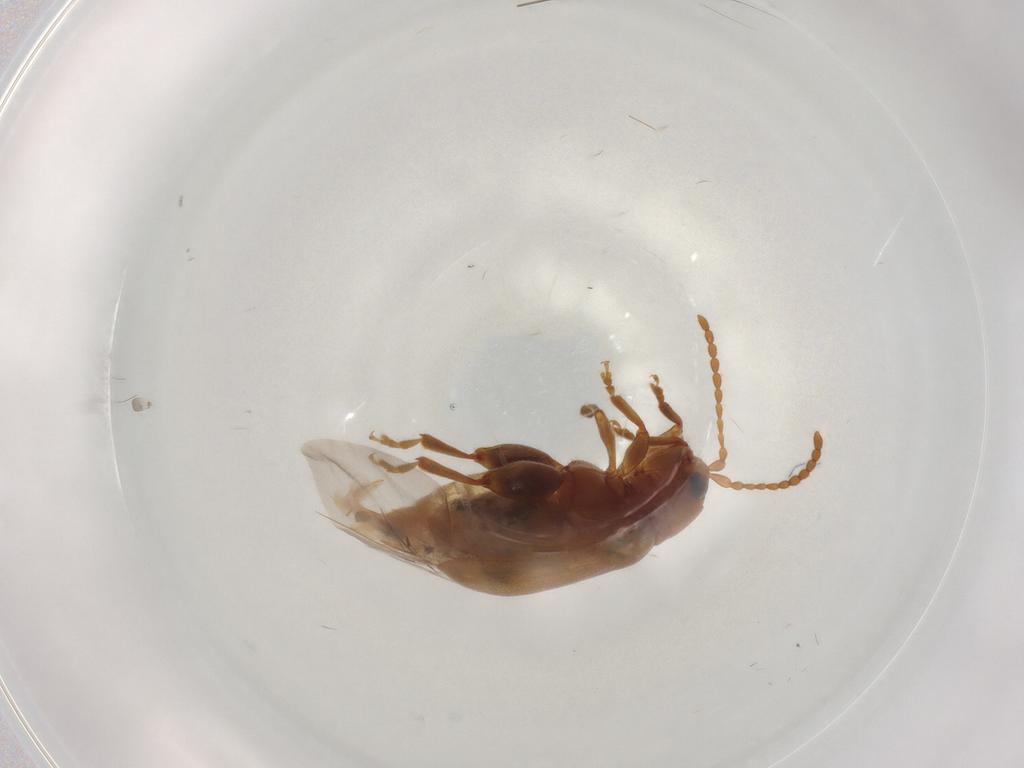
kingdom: Animalia
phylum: Arthropoda
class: Insecta
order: Coleoptera
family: Chrysomelidae
